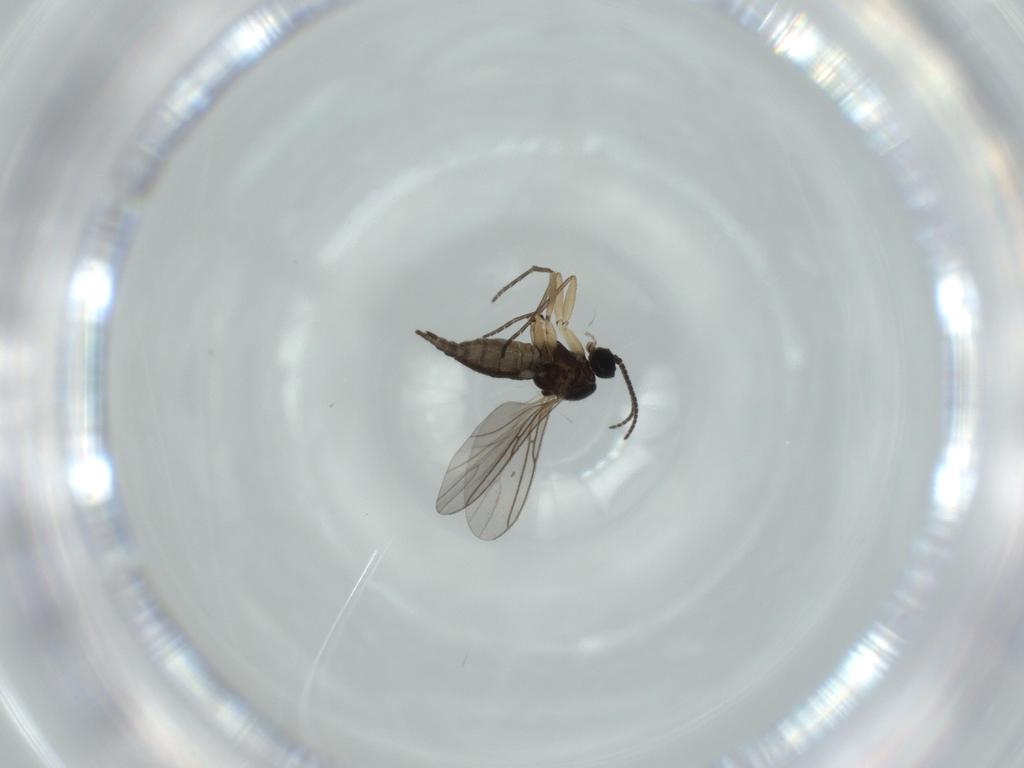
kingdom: Animalia
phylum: Arthropoda
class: Insecta
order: Diptera
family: Sciaridae
